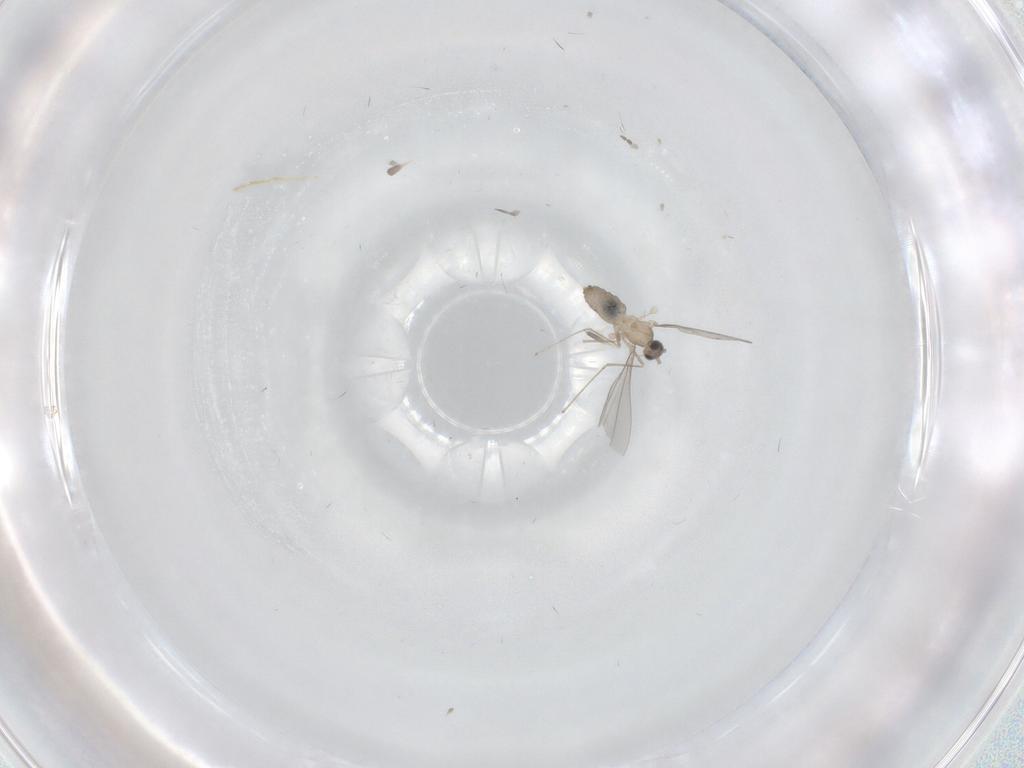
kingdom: Animalia
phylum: Arthropoda
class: Insecta
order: Diptera
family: Cecidomyiidae
